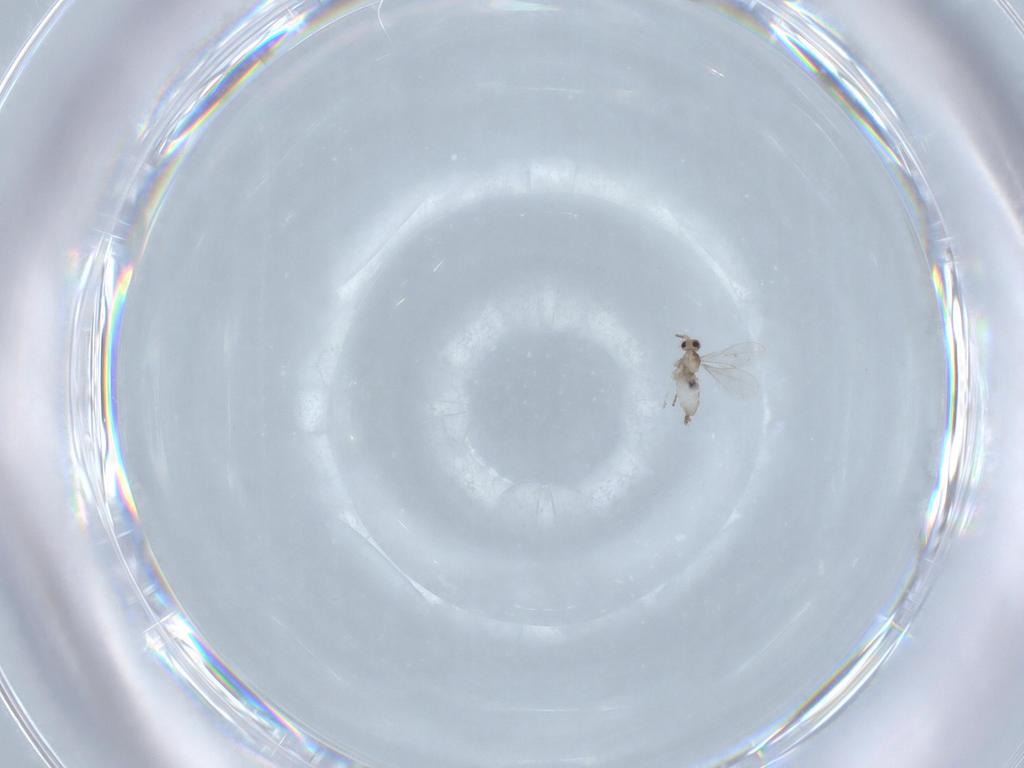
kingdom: Animalia
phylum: Arthropoda
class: Insecta
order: Diptera
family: Cecidomyiidae
